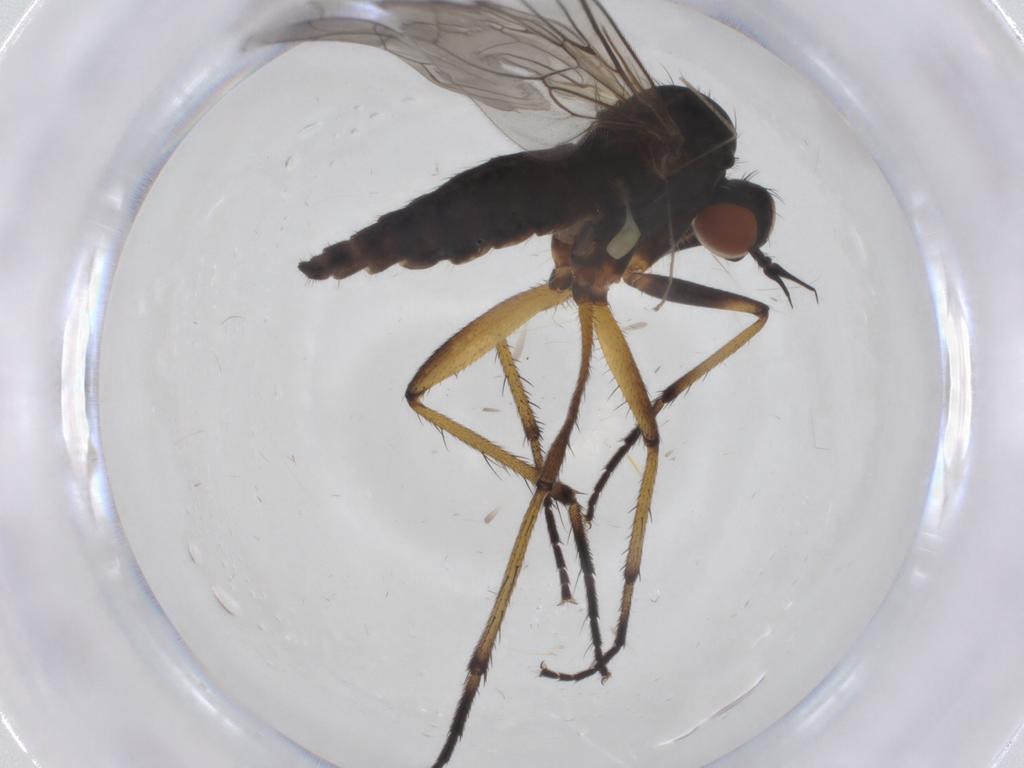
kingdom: Animalia
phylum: Arthropoda
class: Insecta
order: Diptera
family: Empididae
